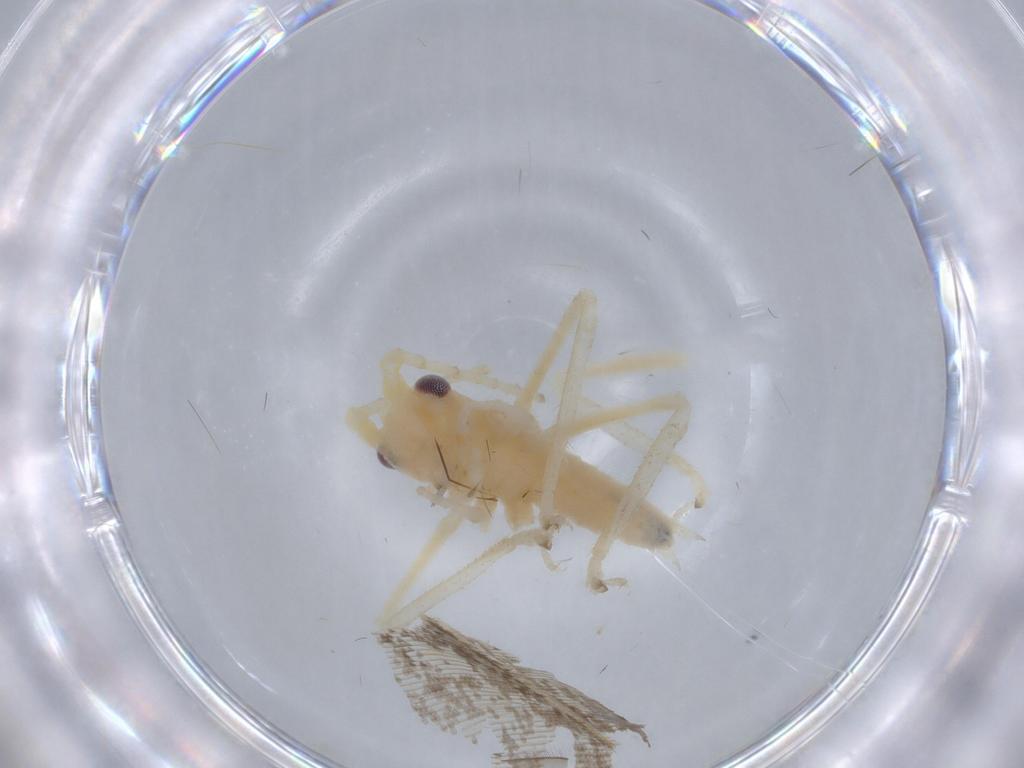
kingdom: Animalia
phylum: Arthropoda
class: Insecta
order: Orthoptera
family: Tettigoniidae
